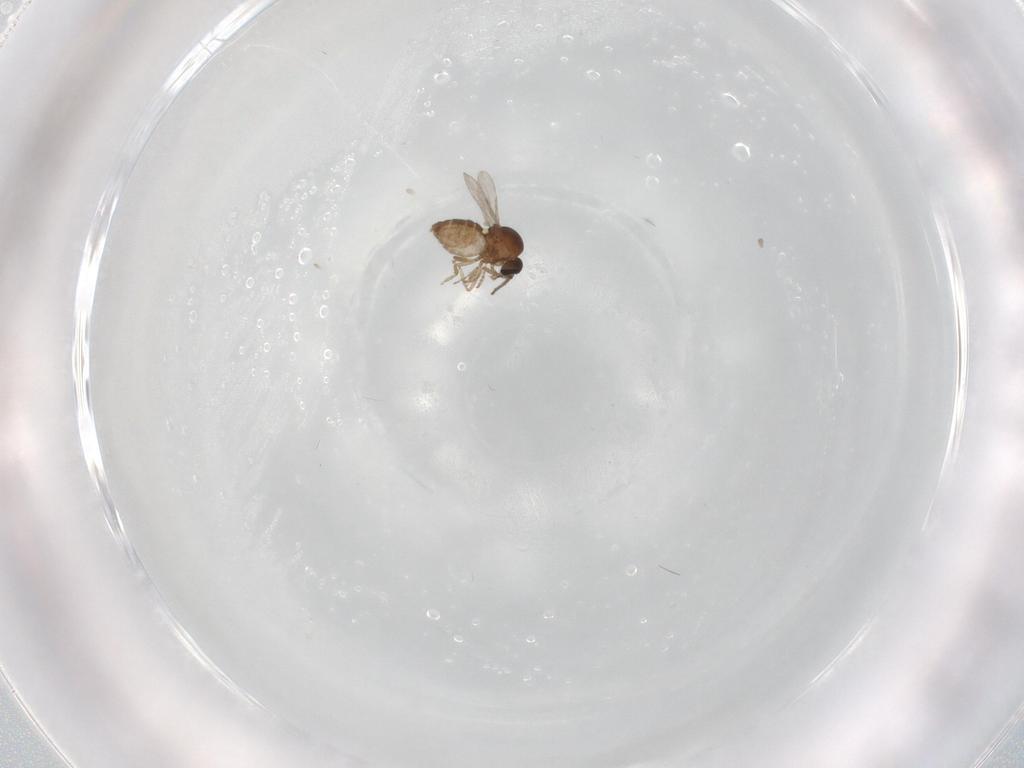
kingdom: Animalia
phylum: Arthropoda
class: Insecta
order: Diptera
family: Ceratopogonidae
